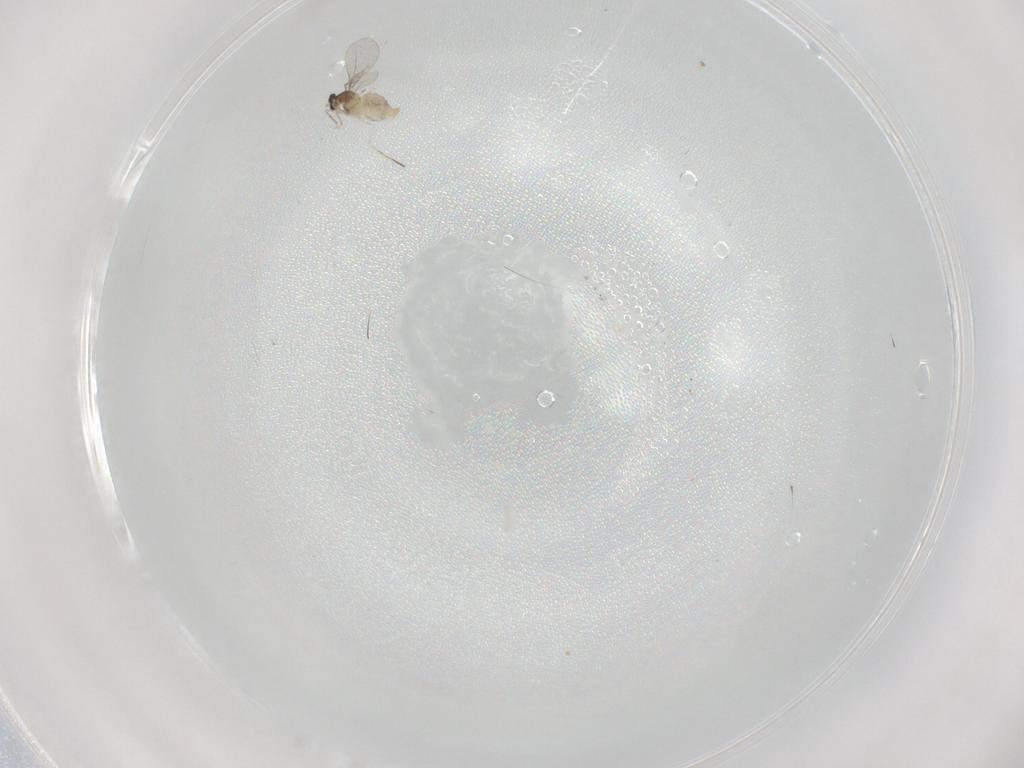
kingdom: Animalia
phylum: Arthropoda
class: Insecta
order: Diptera
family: Cecidomyiidae
